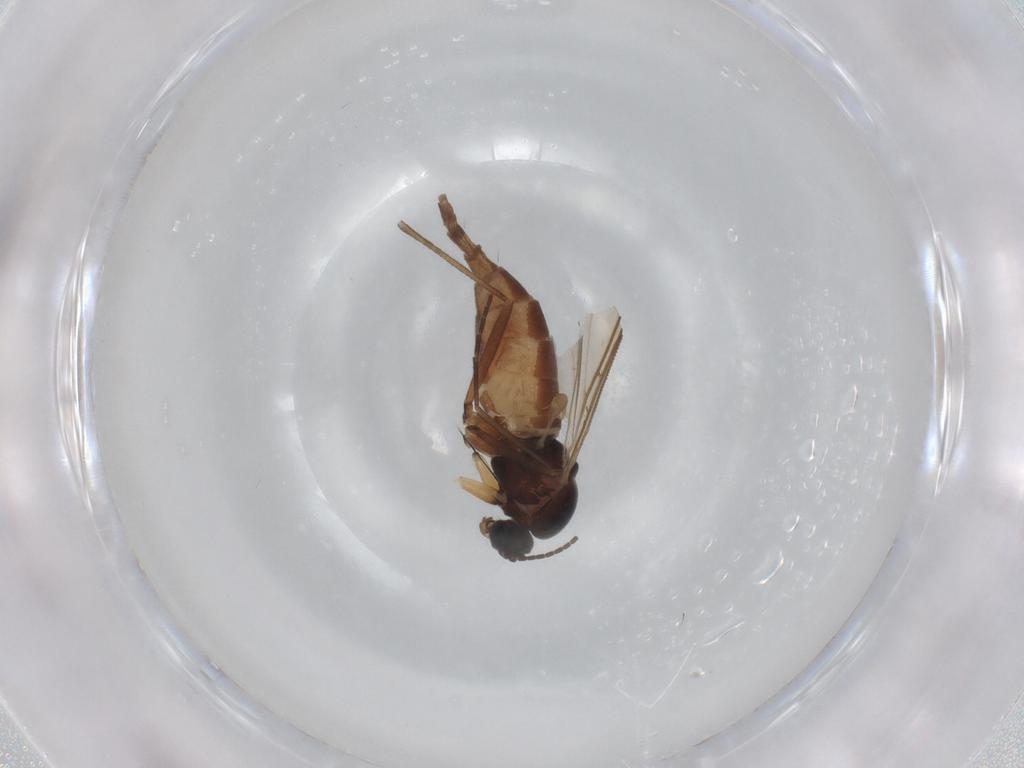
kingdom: Animalia
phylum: Arthropoda
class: Insecta
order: Diptera
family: Sciaridae
